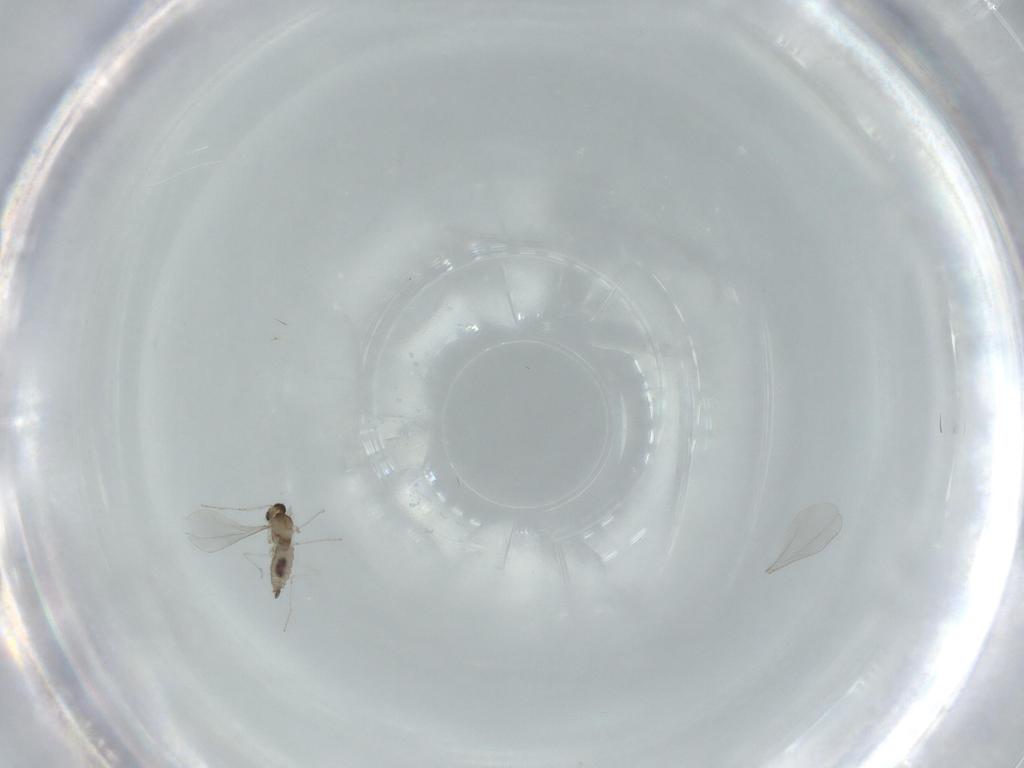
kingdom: Animalia
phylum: Arthropoda
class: Insecta
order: Diptera
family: Cecidomyiidae
